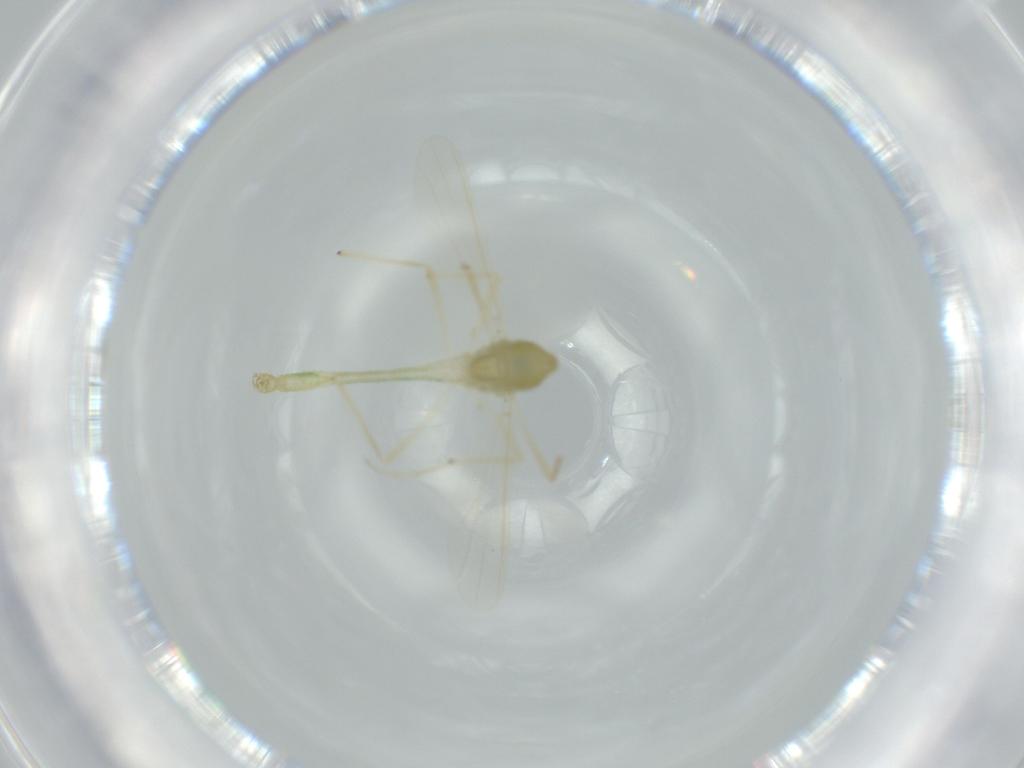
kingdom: Animalia
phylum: Arthropoda
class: Insecta
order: Diptera
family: Chironomidae
